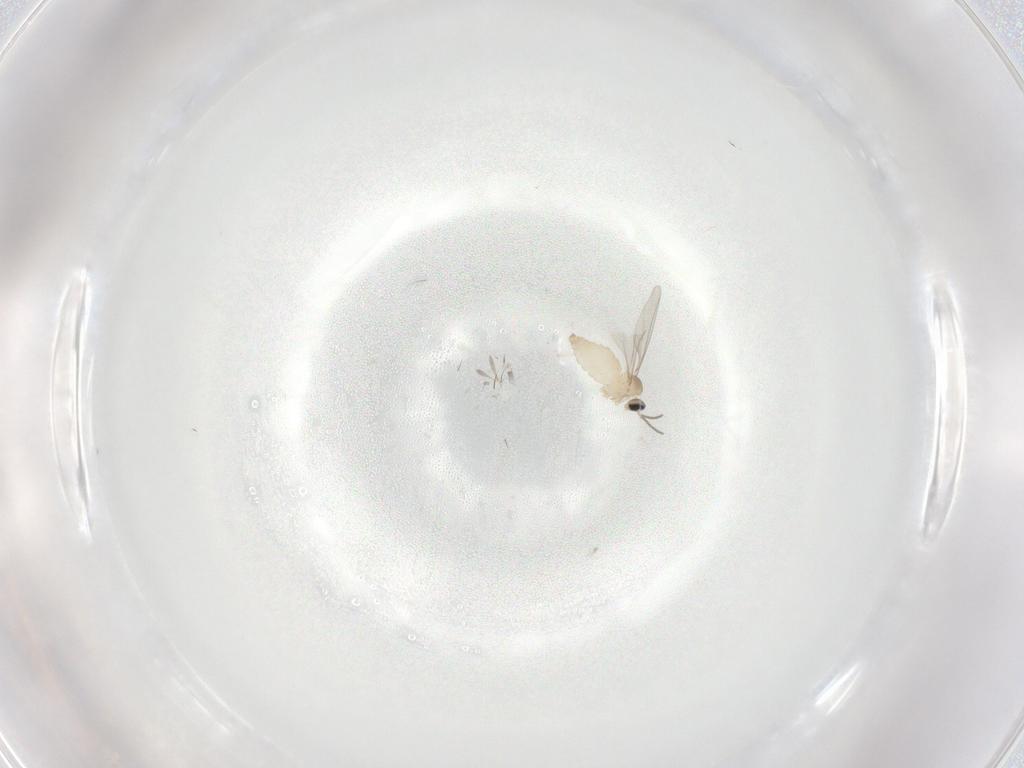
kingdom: Animalia
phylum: Arthropoda
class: Insecta
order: Diptera
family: Cecidomyiidae
